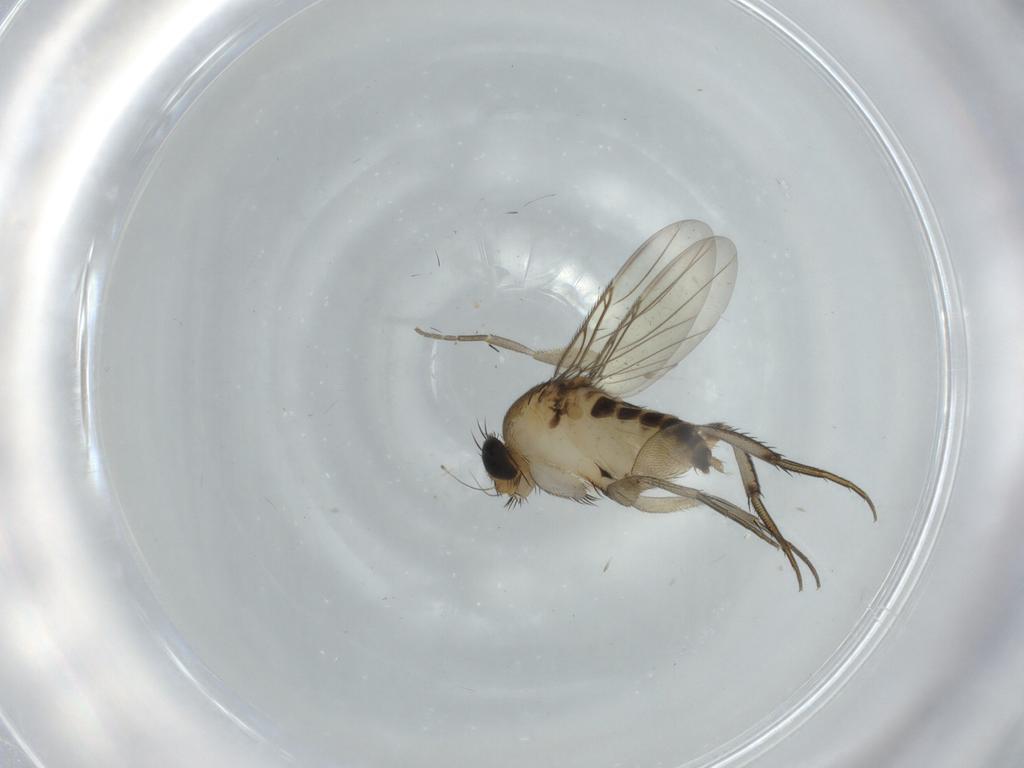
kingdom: Animalia
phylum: Arthropoda
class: Insecta
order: Diptera
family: Phoridae
